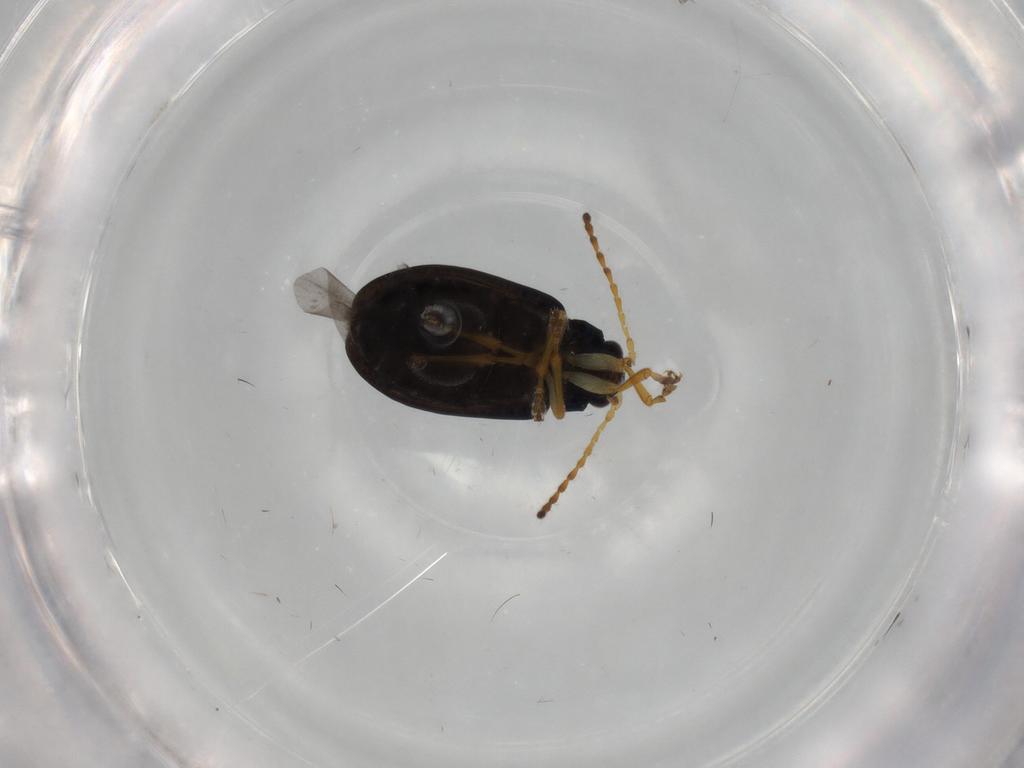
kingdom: Animalia
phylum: Arthropoda
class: Insecta
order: Coleoptera
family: Chrysomelidae
